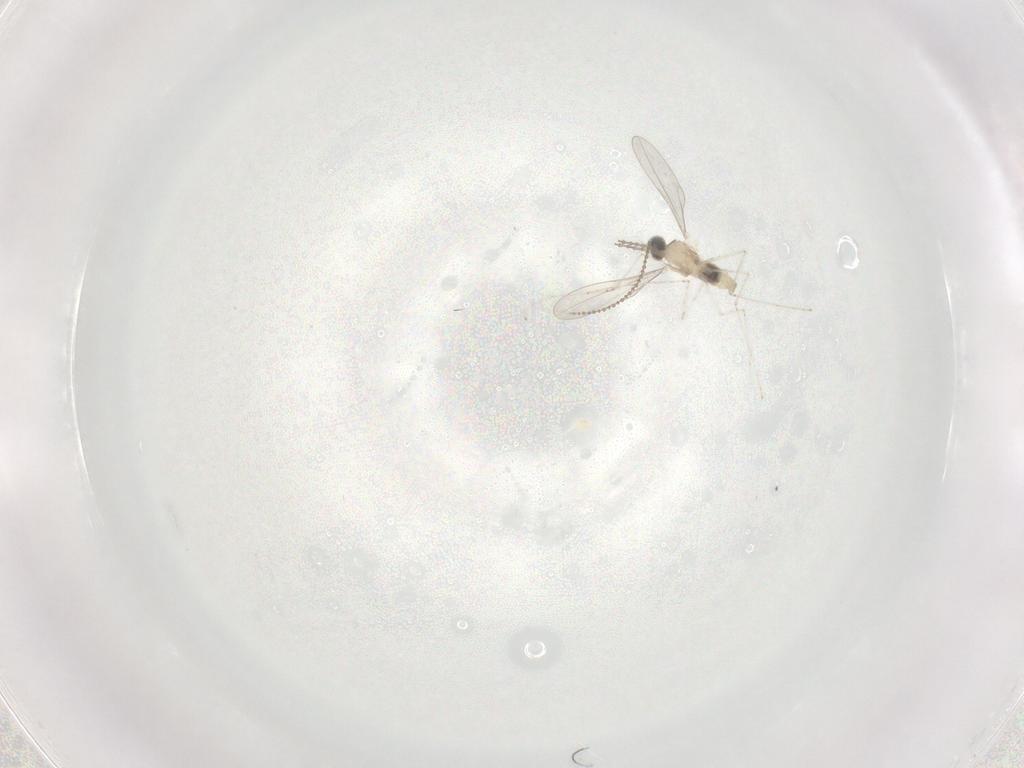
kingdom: Animalia
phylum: Arthropoda
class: Insecta
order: Diptera
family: Cecidomyiidae
